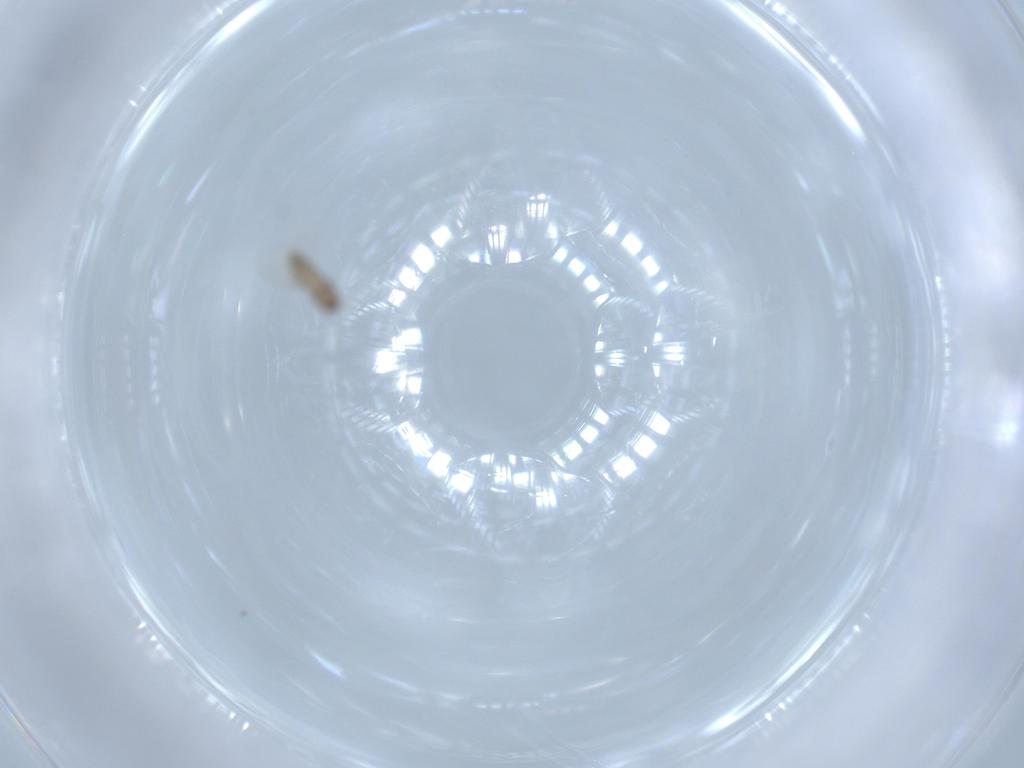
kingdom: Animalia
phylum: Arthropoda
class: Insecta
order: Diptera
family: Cecidomyiidae
